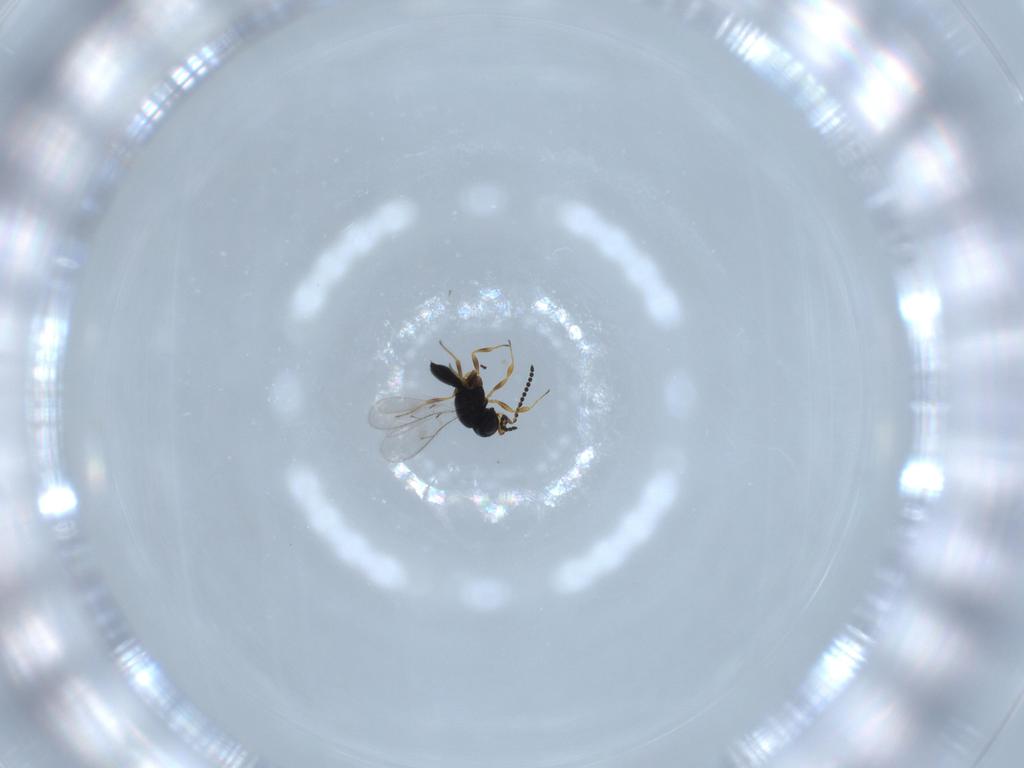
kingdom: Animalia
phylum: Arthropoda
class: Insecta
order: Hymenoptera
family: Scelionidae
